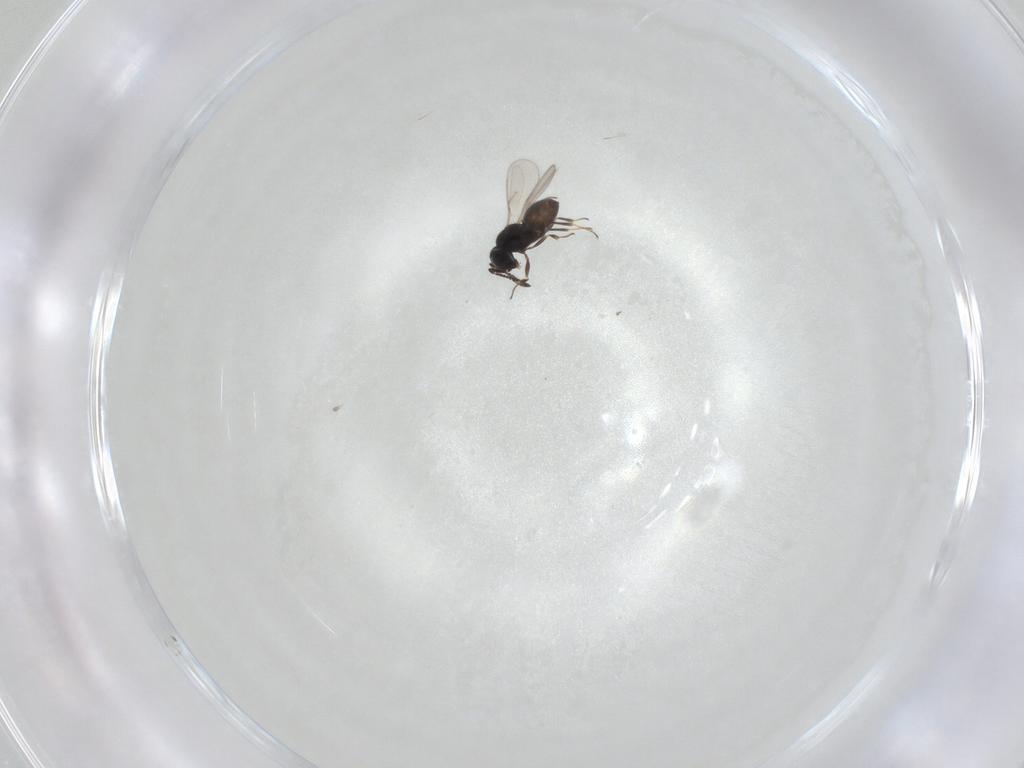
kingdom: Animalia
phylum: Arthropoda
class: Insecta
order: Hymenoptera
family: Scelionidae
